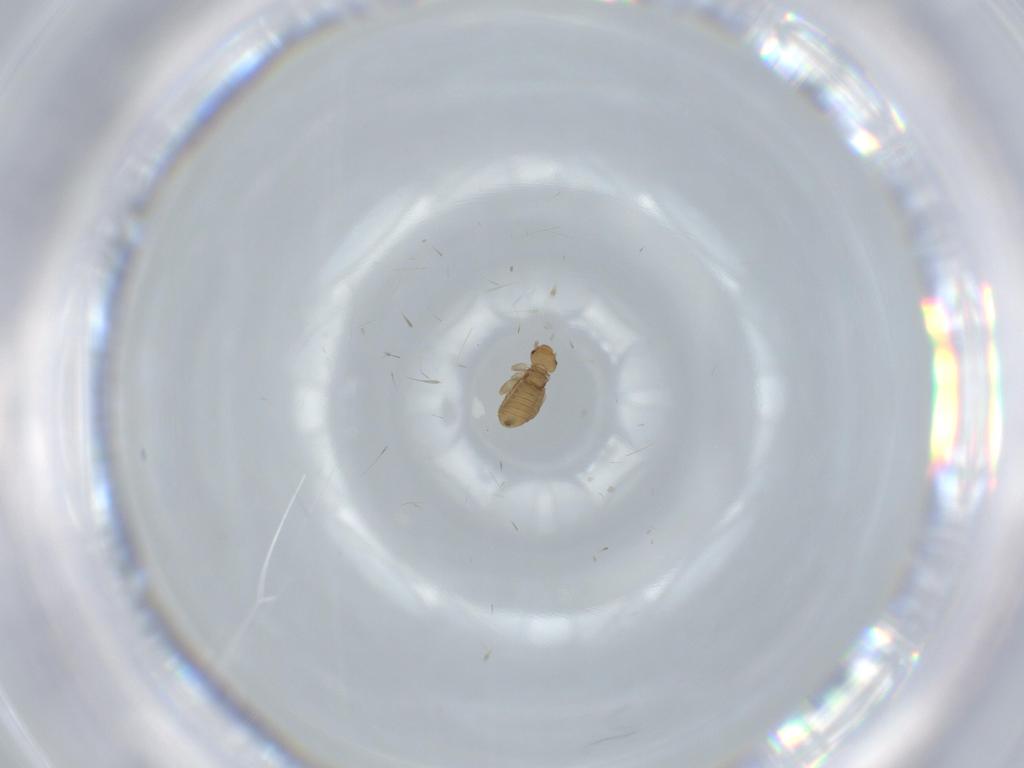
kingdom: Animalia
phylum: Arthropoda
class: Insecta
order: Psocodea
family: Liposcelididae
